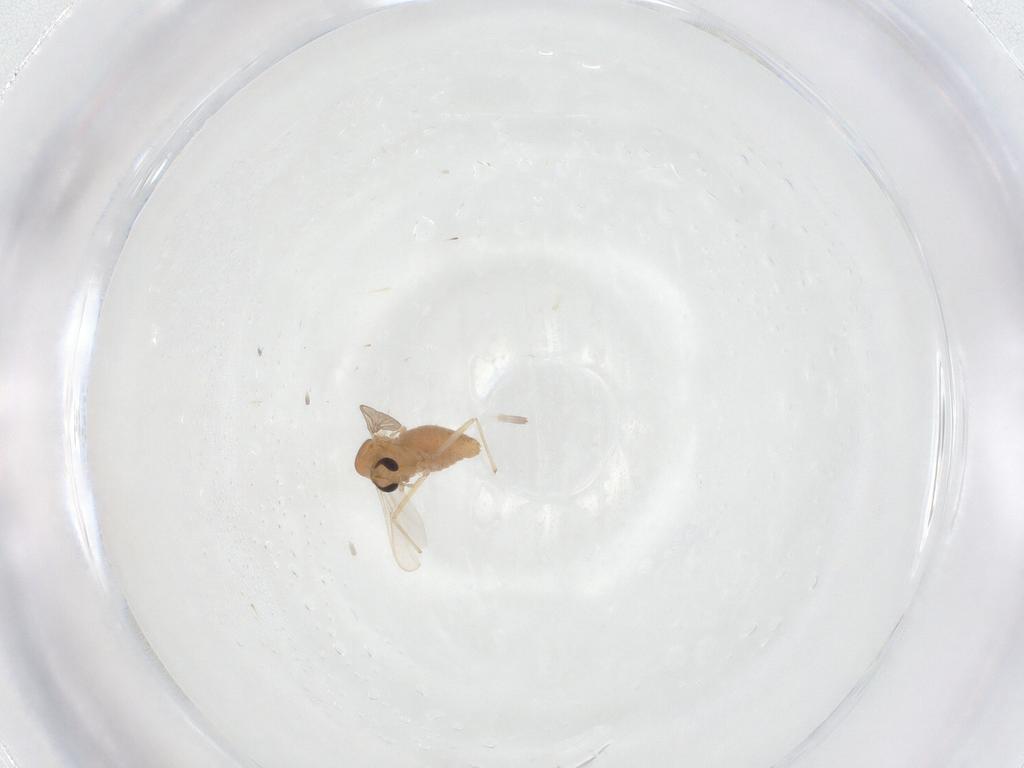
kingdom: Animalia
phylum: Arthropoda
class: Insecta
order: Diptera
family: Chironomidae
